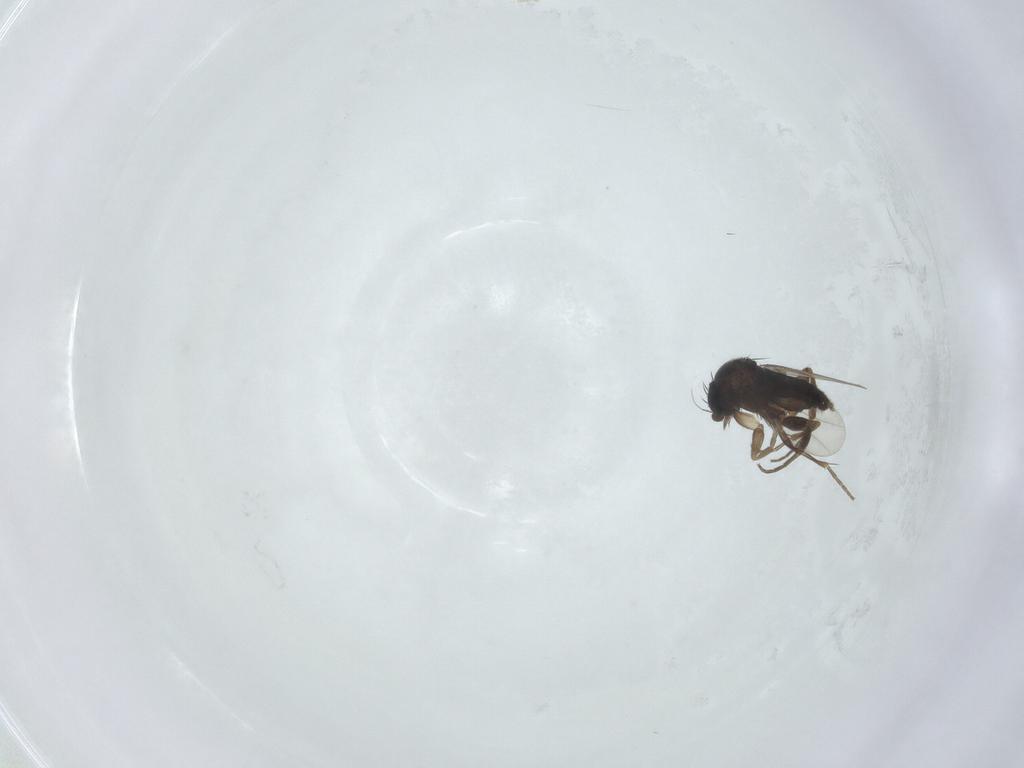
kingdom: Animalia
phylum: Arthropoda
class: Insecta
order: Diptera
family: Phoridae
